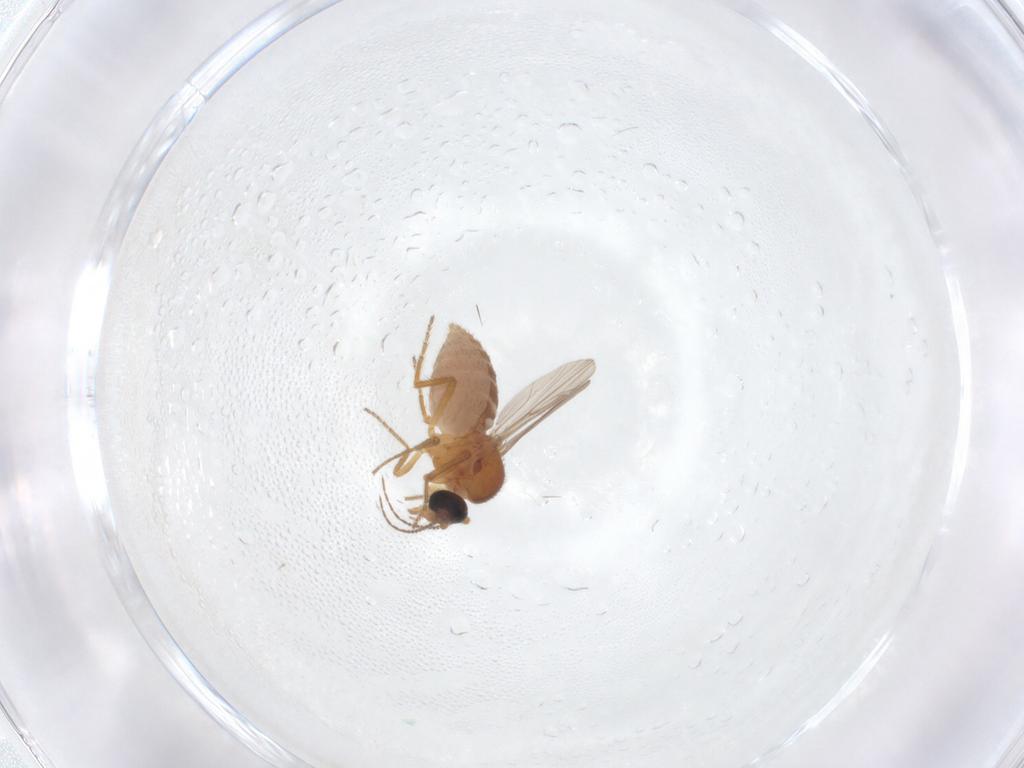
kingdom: Animalia
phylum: Arthropoda
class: Insecta
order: Diptera
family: Ceratopogonidae
